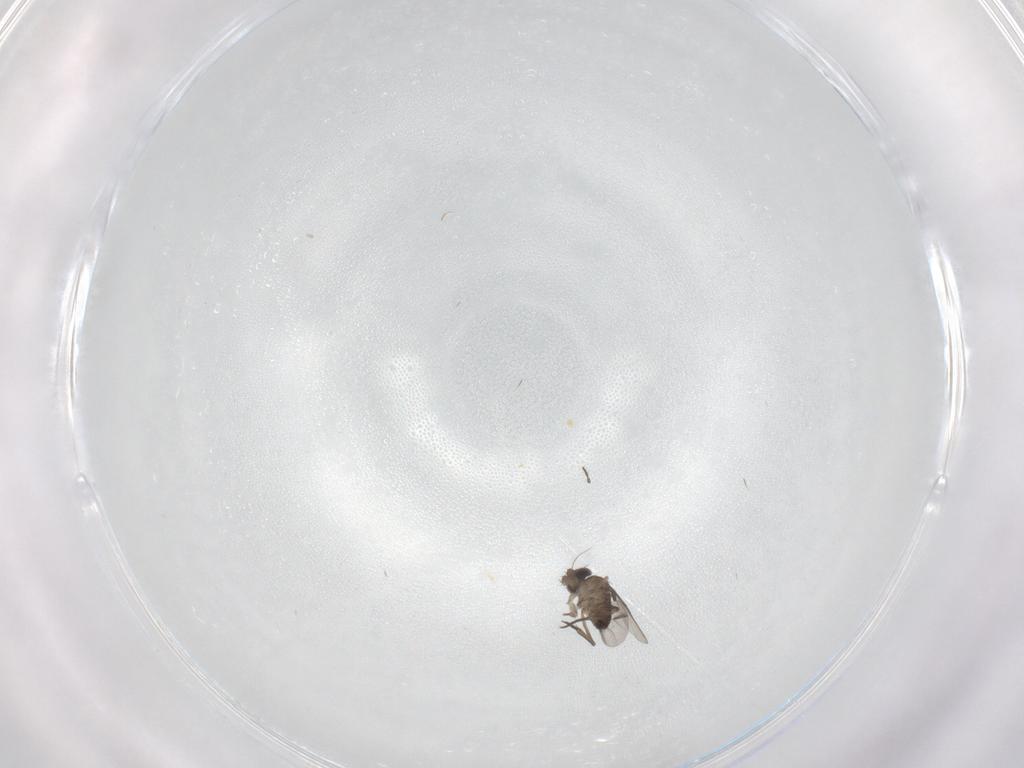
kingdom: Animalia
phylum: Arthropoda
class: Insecta
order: Diptera
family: Phoridae
